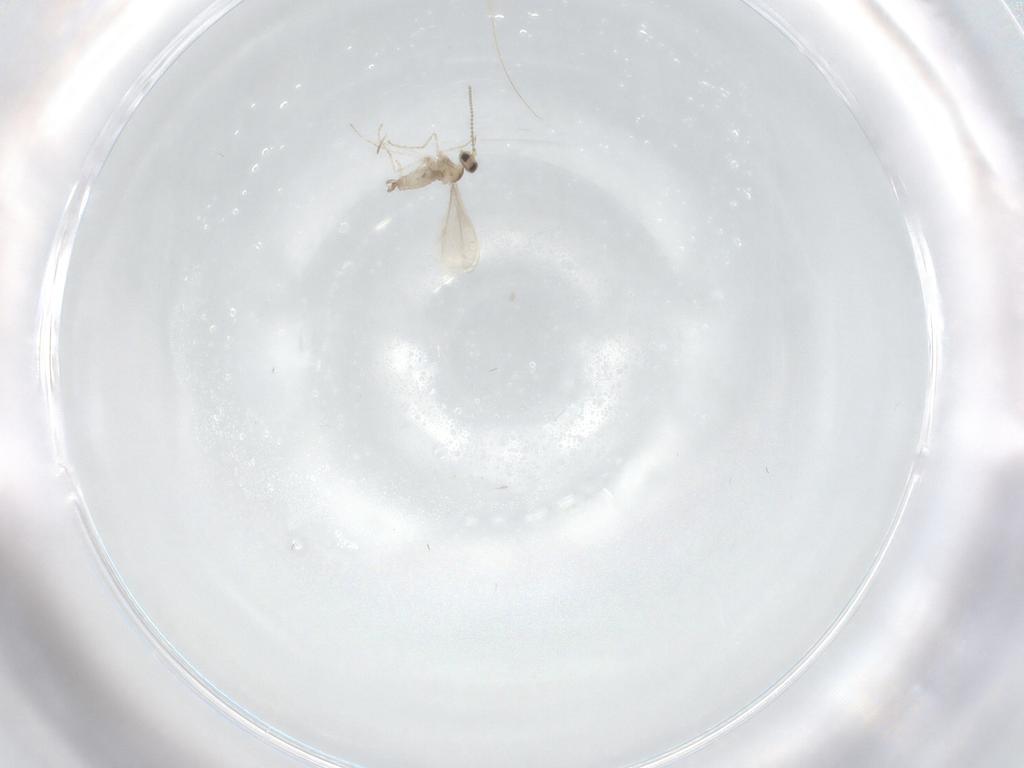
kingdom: Animalia
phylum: Arthropoda
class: Insecta
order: Diptera
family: Cecidomyiidae
